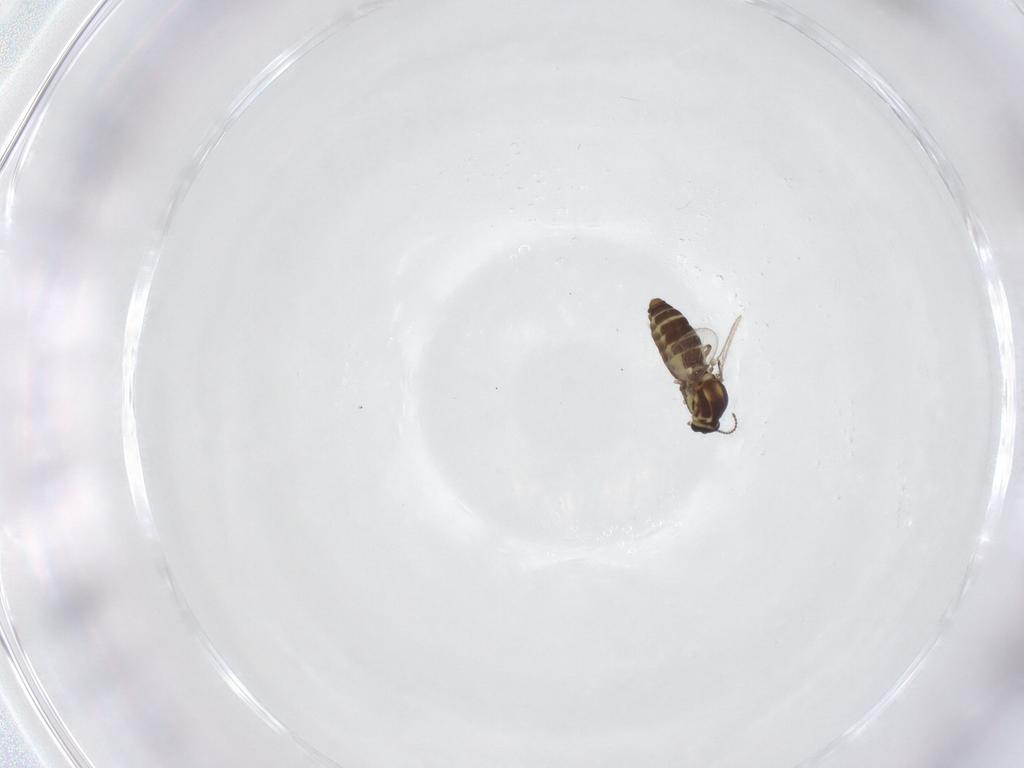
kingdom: Animalia
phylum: Arthropoda
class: Insecta
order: Diptera
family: Ceratopogonidae
